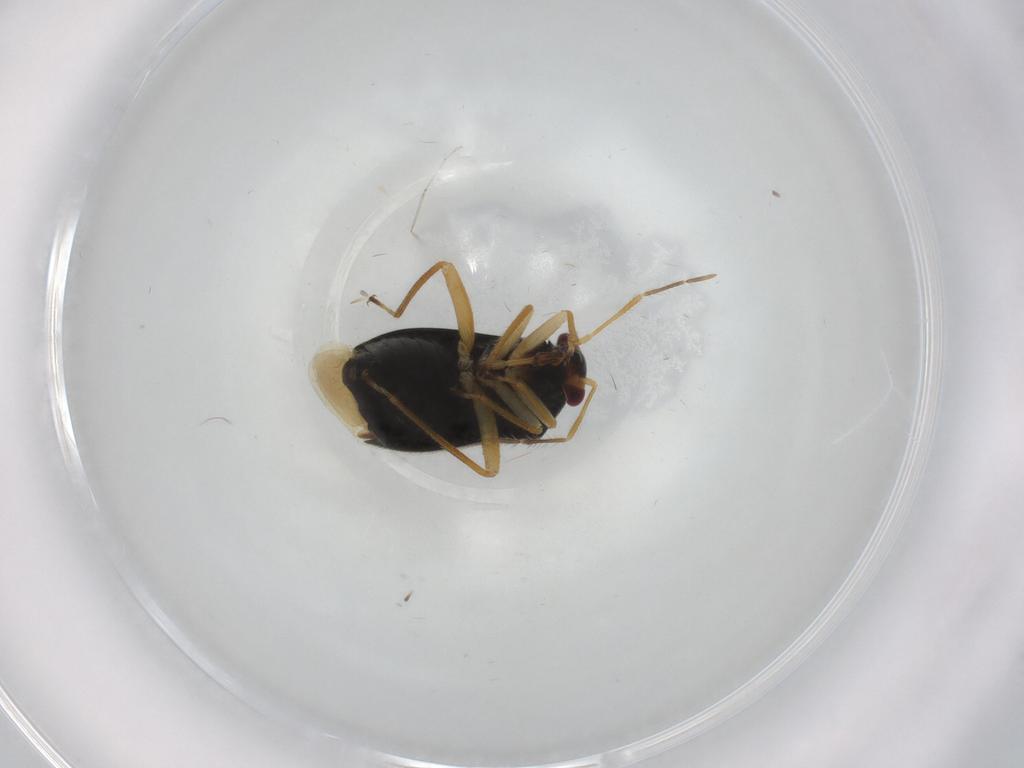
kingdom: Animalia
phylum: Arthropoda
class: Insecta
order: Hemiptera
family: Miridae
